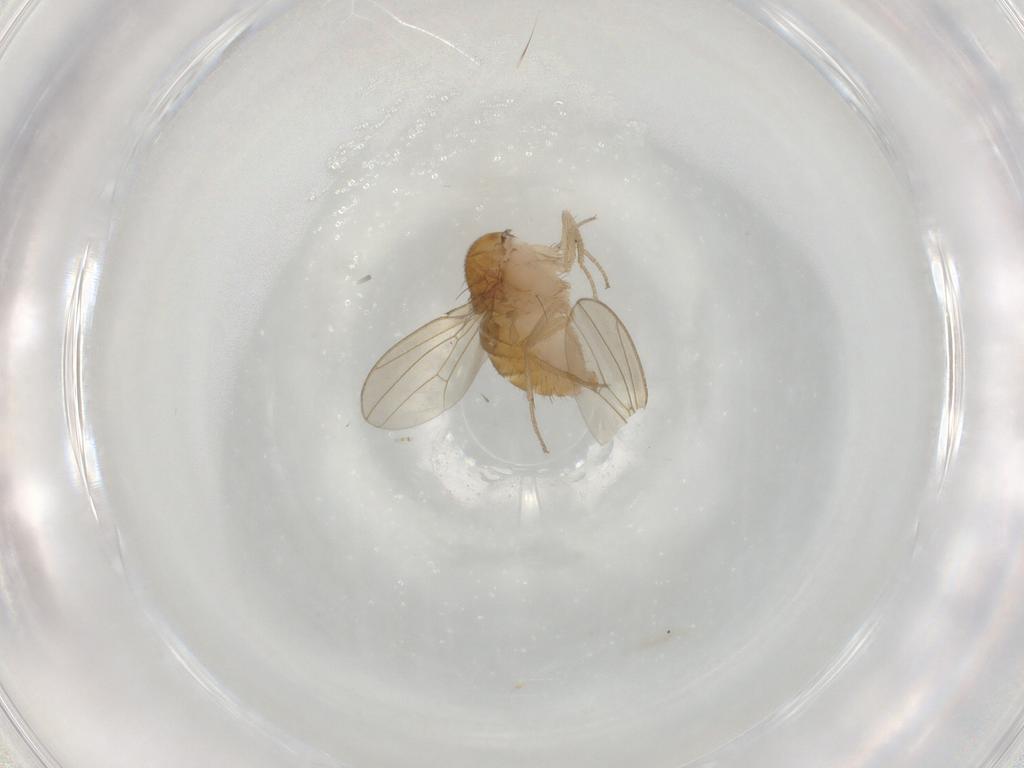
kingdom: Animalia
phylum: Arthropoda
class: Insecta
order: Diptera
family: Drosophilidae
